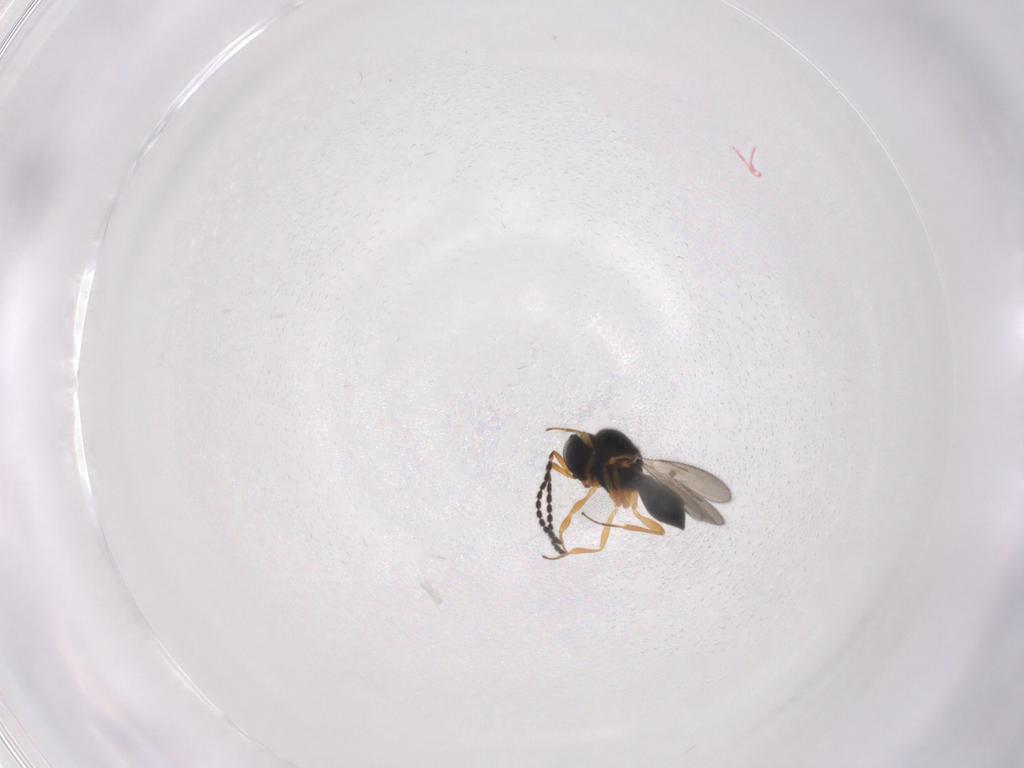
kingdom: Animalia
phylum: Arthropoda
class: Insecta
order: Hymenoptera
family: Scelionidae
